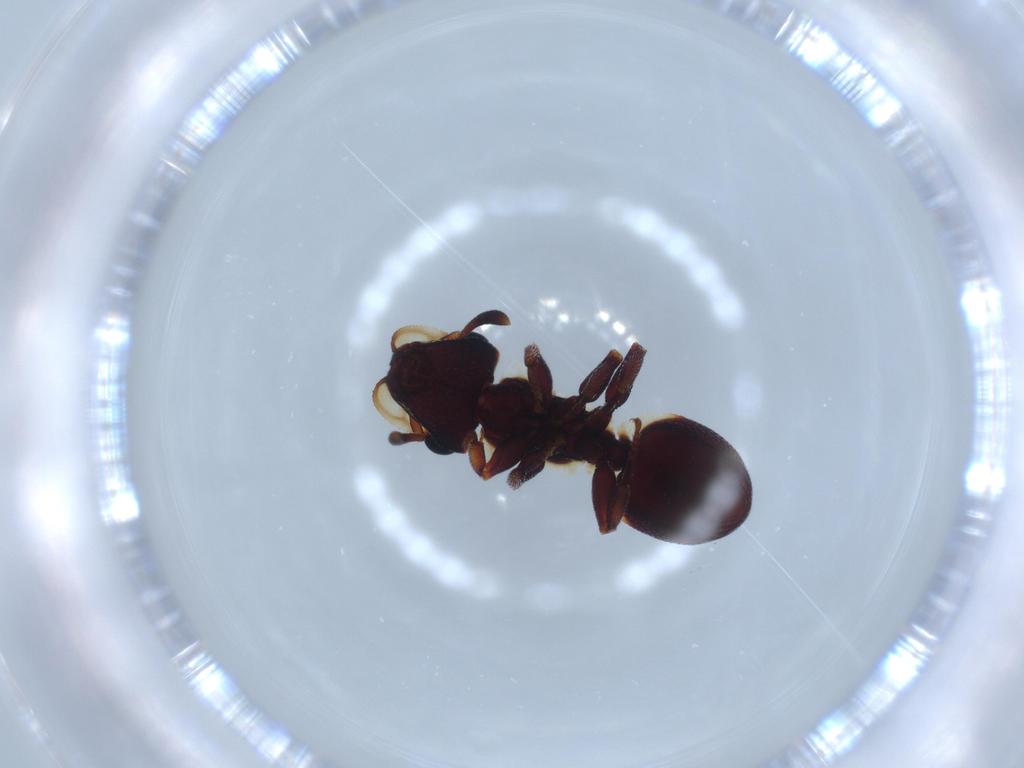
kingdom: Animalia
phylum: Arthropoda
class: Insecta
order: Hymenoptera
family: Formicidae
